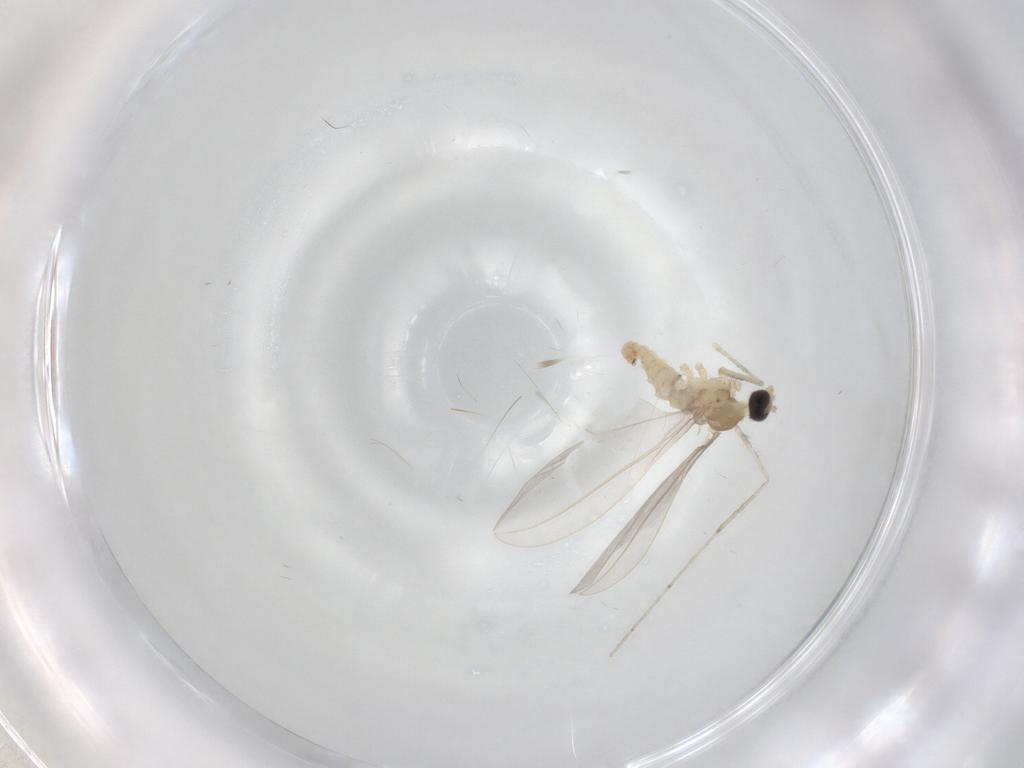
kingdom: Animalia
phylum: Arthropoda
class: Insecta
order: Diptera
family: Cecidomyiidae
